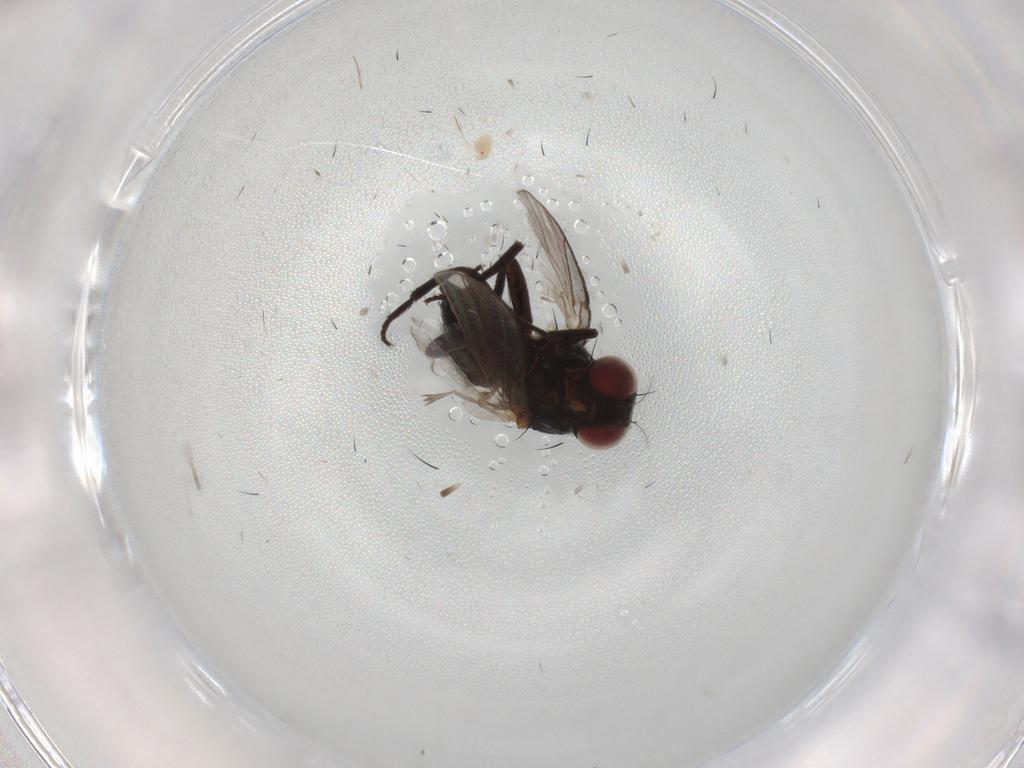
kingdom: Animalia
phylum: Arthropoda
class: Insecta
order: Diptera
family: Agromyzidae
